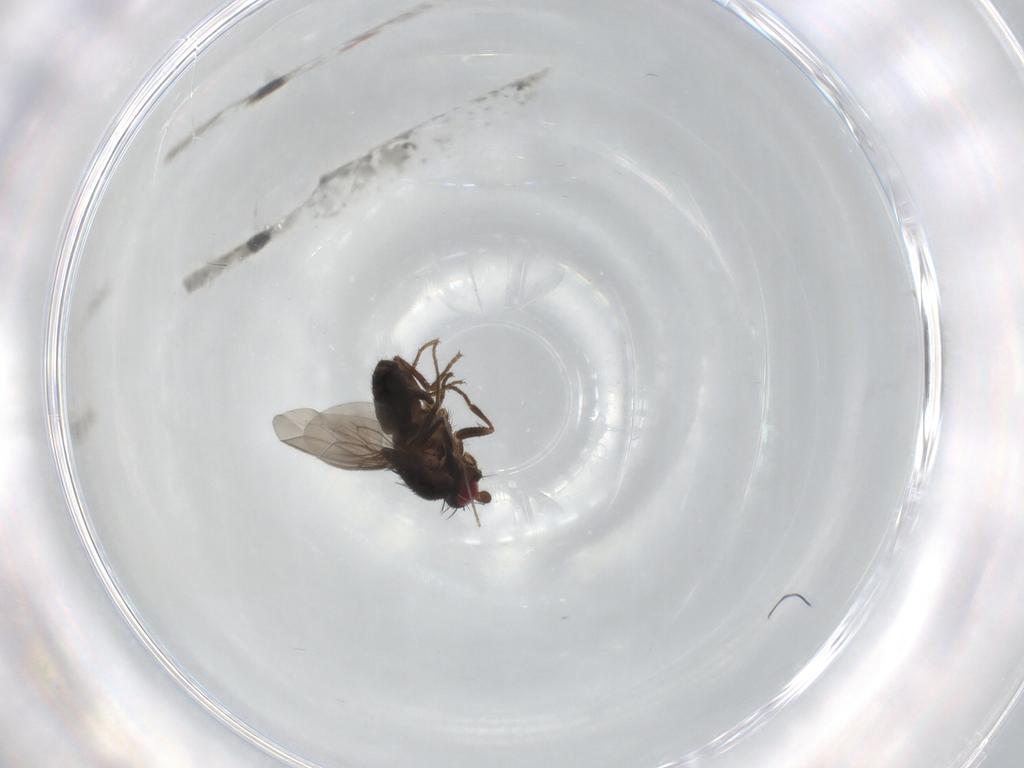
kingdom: Animalia
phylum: Arthropoda
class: Insecta
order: Diptera
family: Sphaeroceridae
